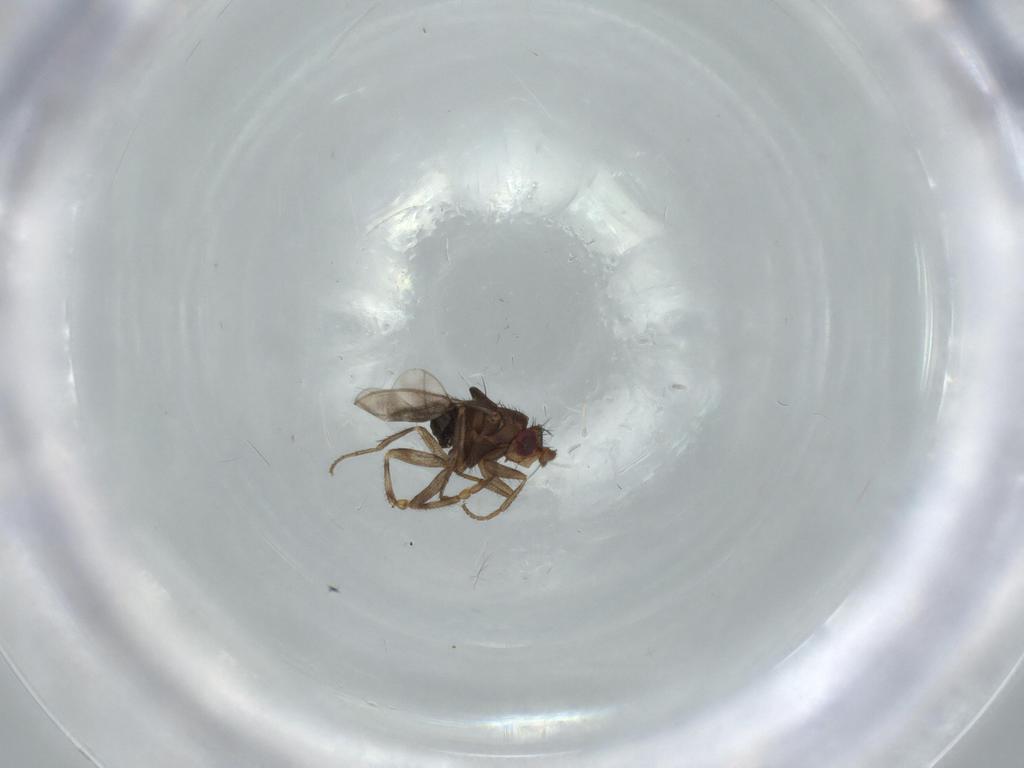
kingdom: Animalia
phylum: Arthropoda
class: Insecta
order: Diptera
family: Sphaeroceridae
